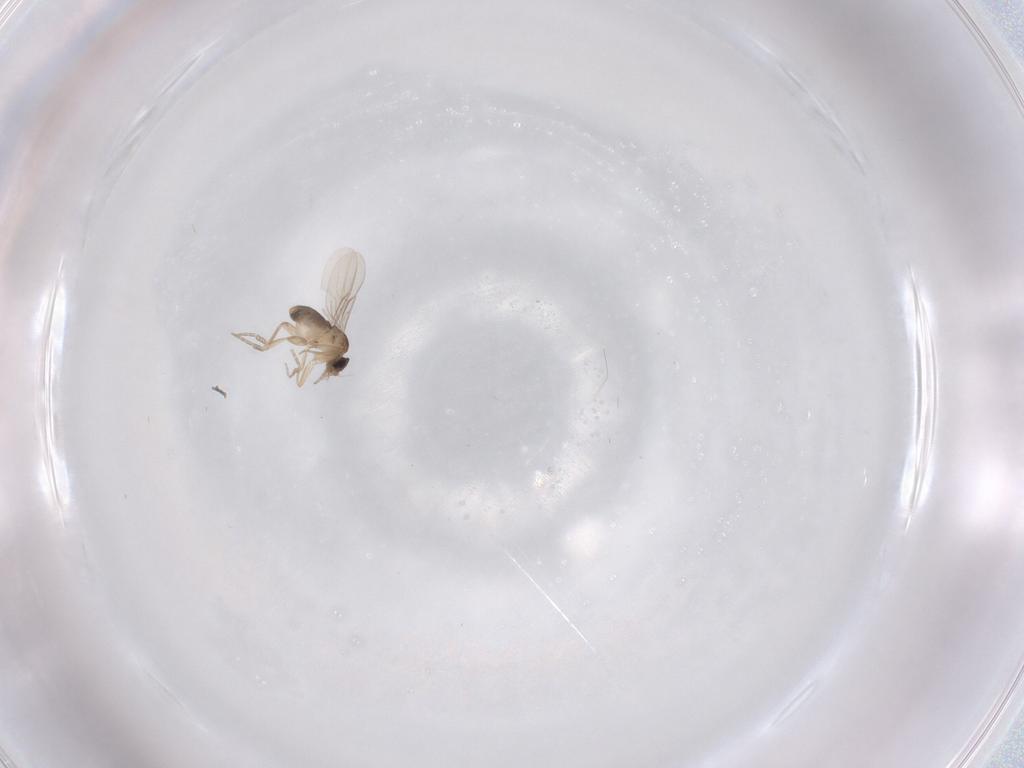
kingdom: Animalia
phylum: Arthropoda
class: Insecta
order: Diptera
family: Phoridae
